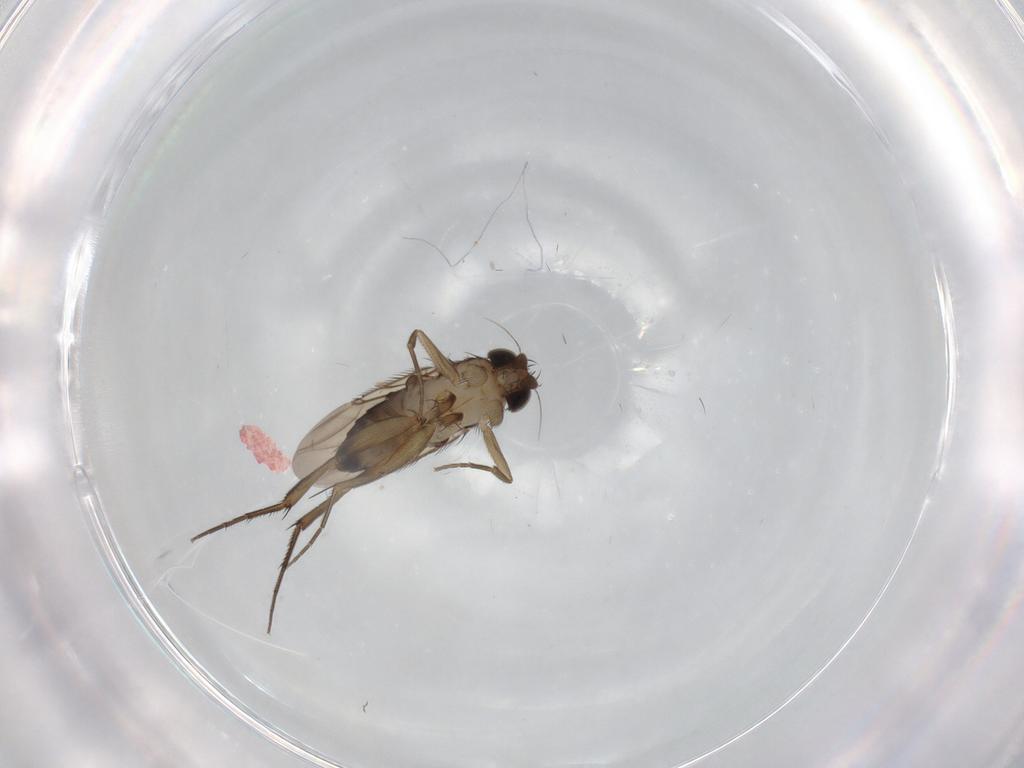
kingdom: Animalia
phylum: Arthropoda
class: Insecta
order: Diptera
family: Phoridae
